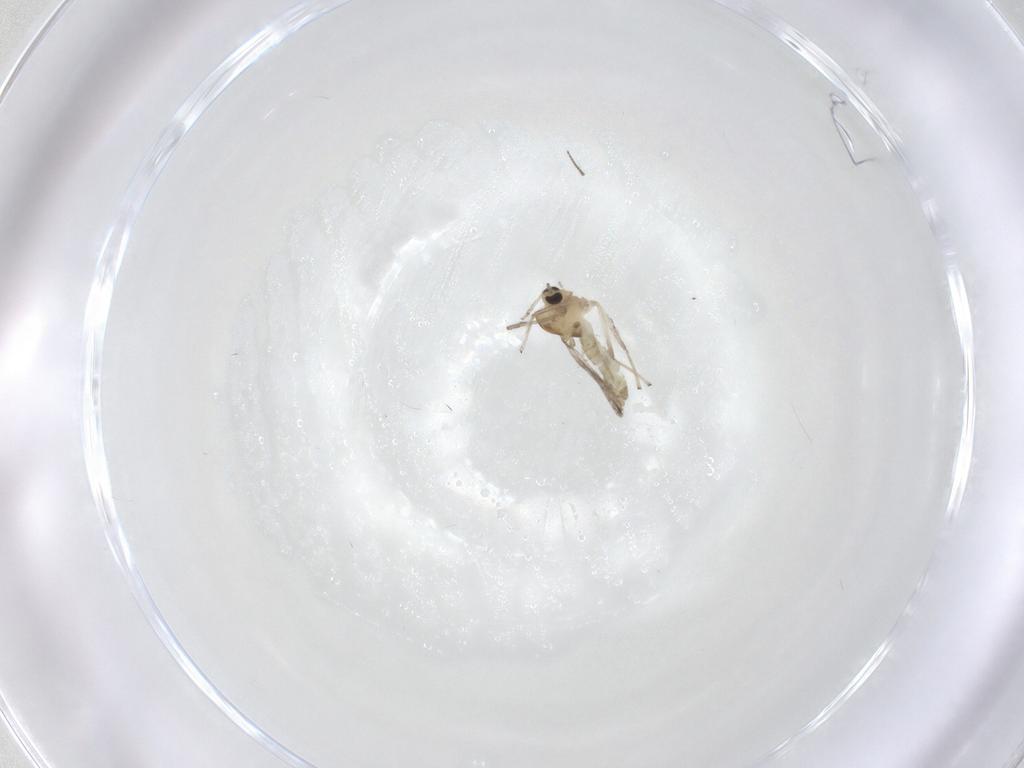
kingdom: Animalia
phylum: Arthropoda
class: Insecta
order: Diptera
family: Chironomidae
